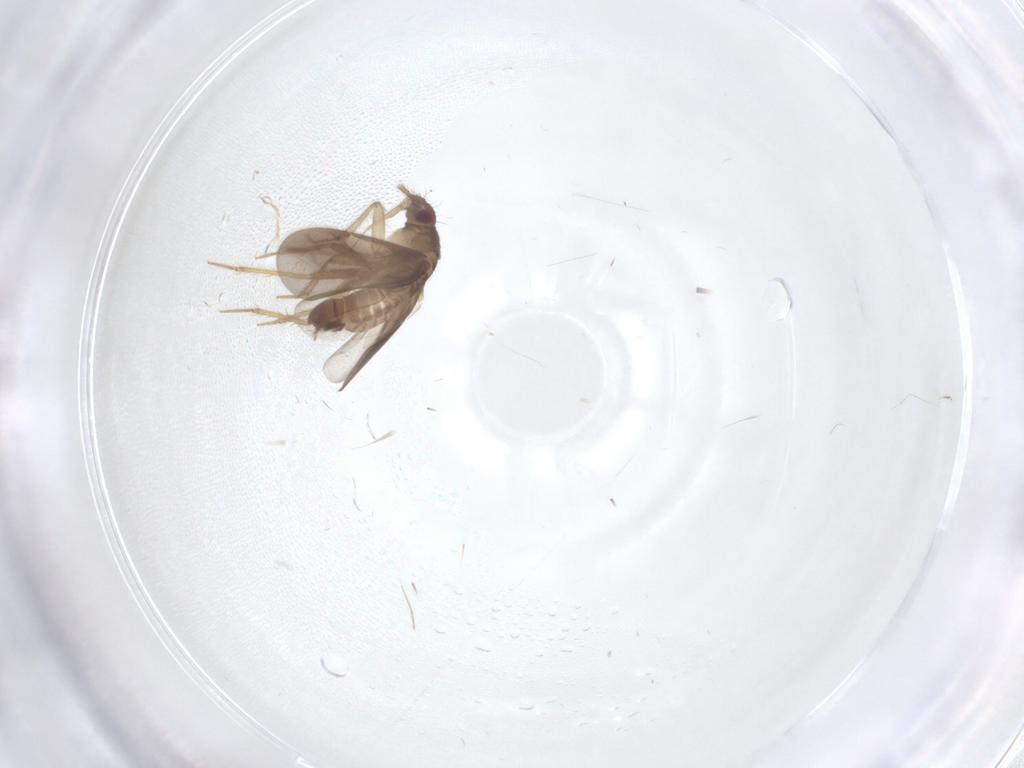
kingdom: Animalia
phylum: Arthropoda
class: Insecta
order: Hemiptera
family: Ceratocombidae
